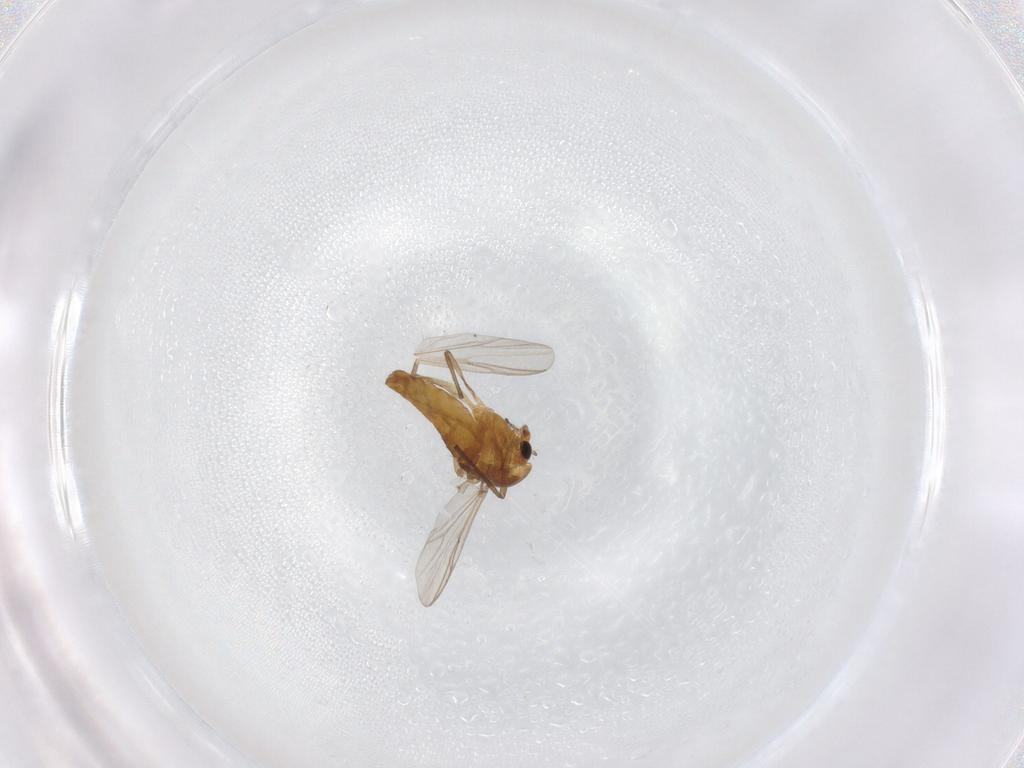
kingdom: Animalia
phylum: Arthropoda
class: Insecta
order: Diptera
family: Chironomidae
